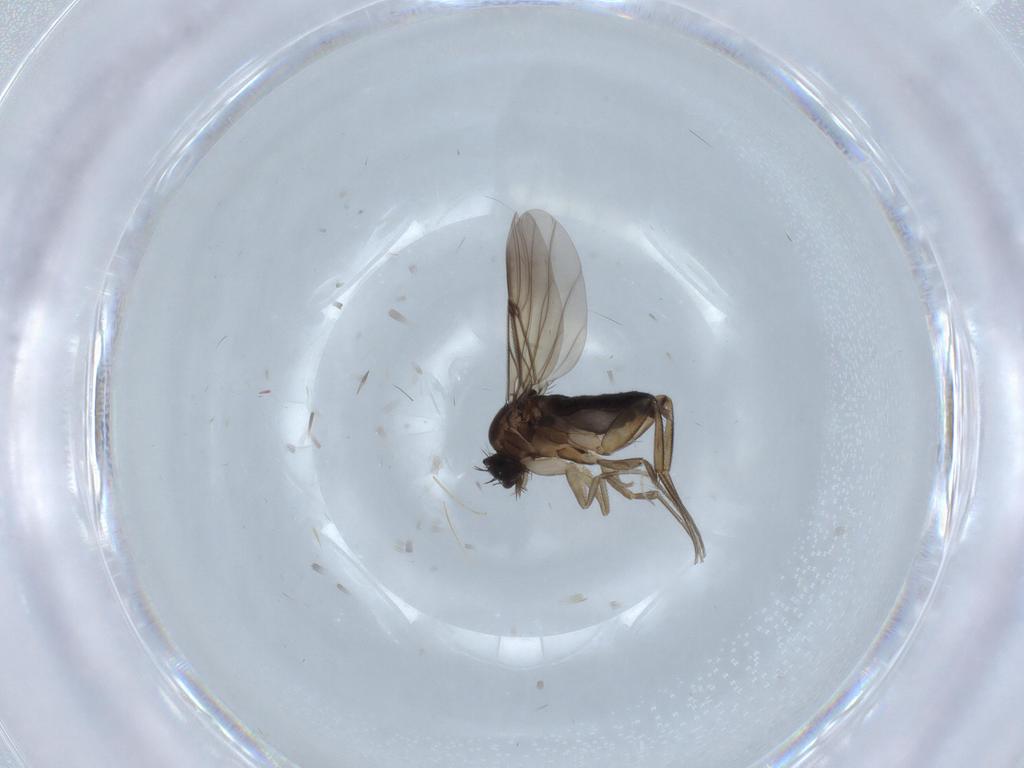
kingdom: Animalia
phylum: Arthropoda
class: Insecta
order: Diptera
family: Phoridae
